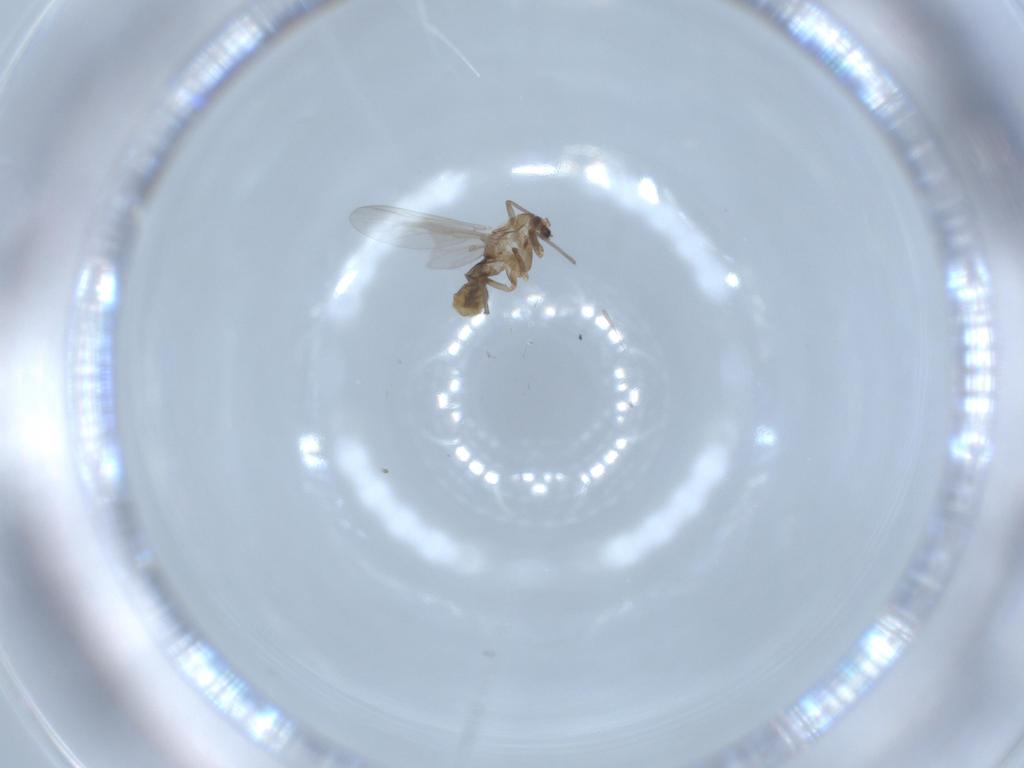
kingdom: Animalia
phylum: Arthropoda
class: Insecta
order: Diptera
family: Chironomidae
